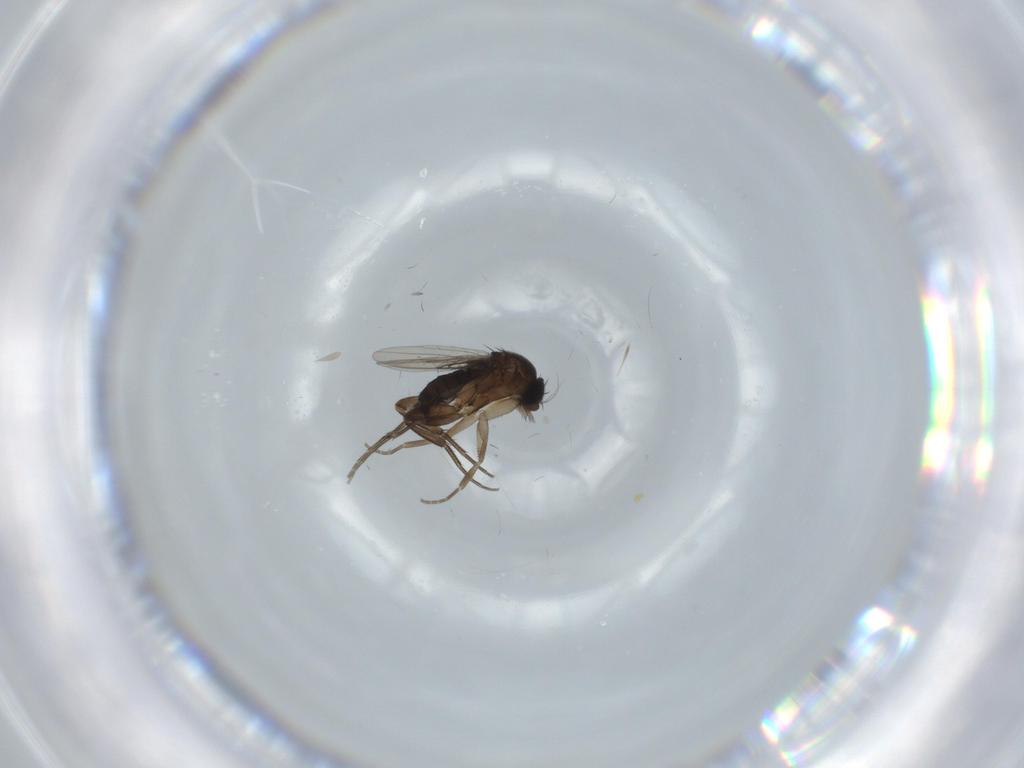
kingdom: Animalia
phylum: Arthropoda
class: Insecta
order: Diptera
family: Phoridae
